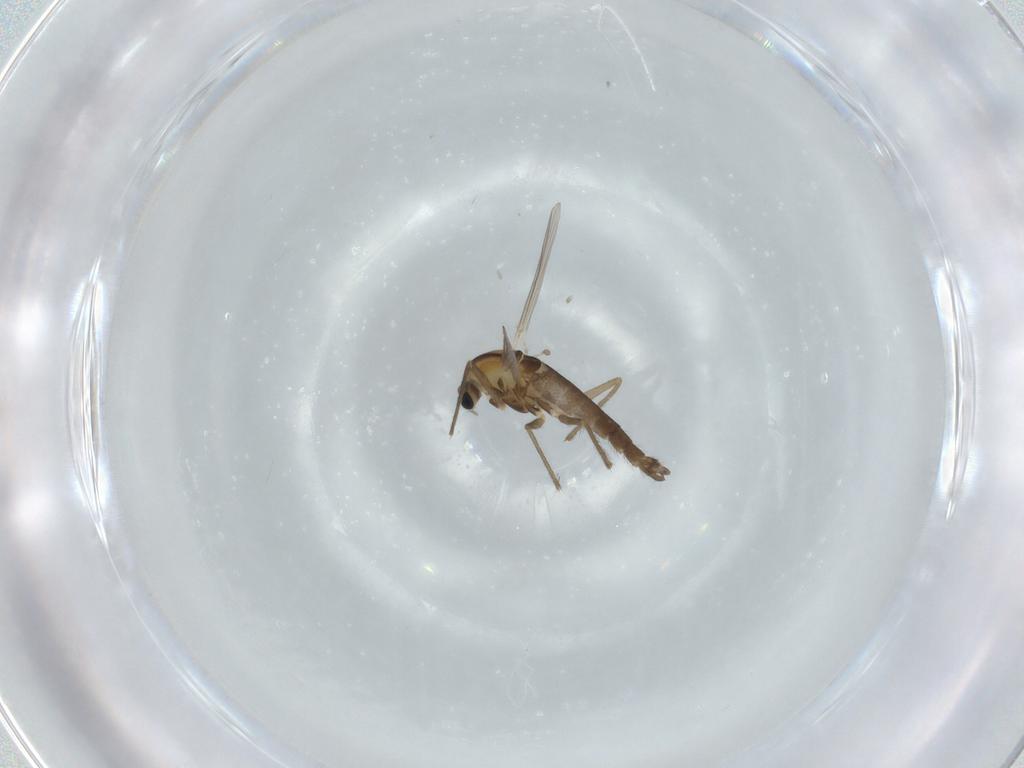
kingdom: Animalia
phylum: Arthropoda
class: Insecta
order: Diptera
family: Chironomidae
